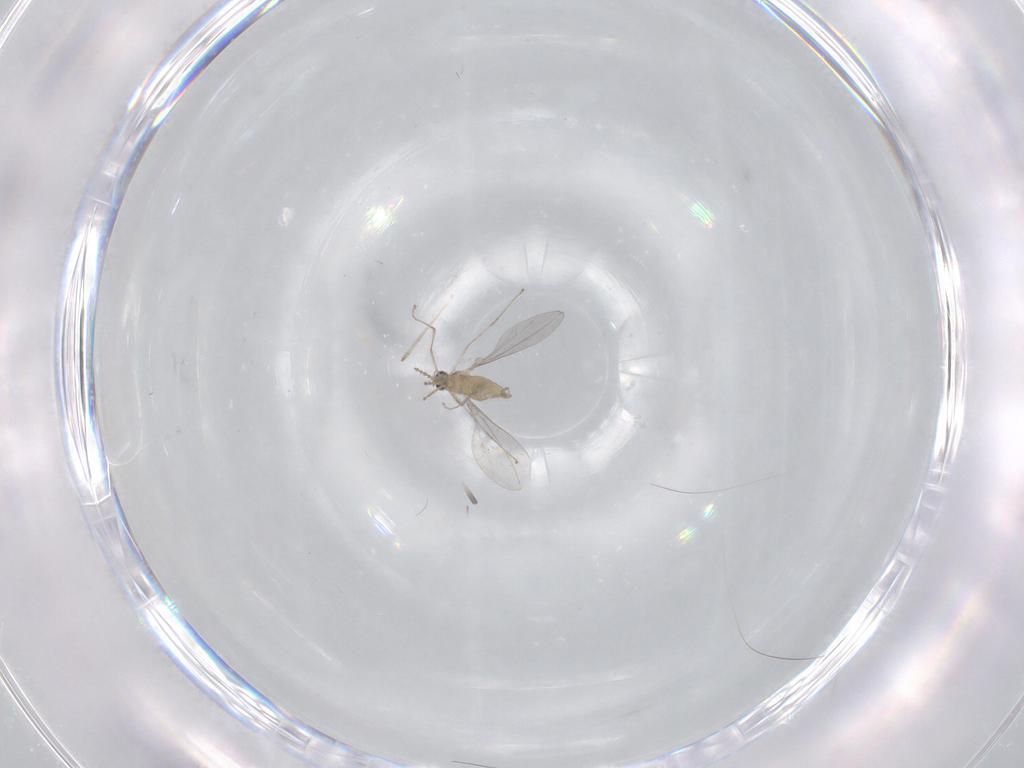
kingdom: Animalia
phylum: Arthropoda
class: Insecta
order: Diptera
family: Cecidomyiidae
